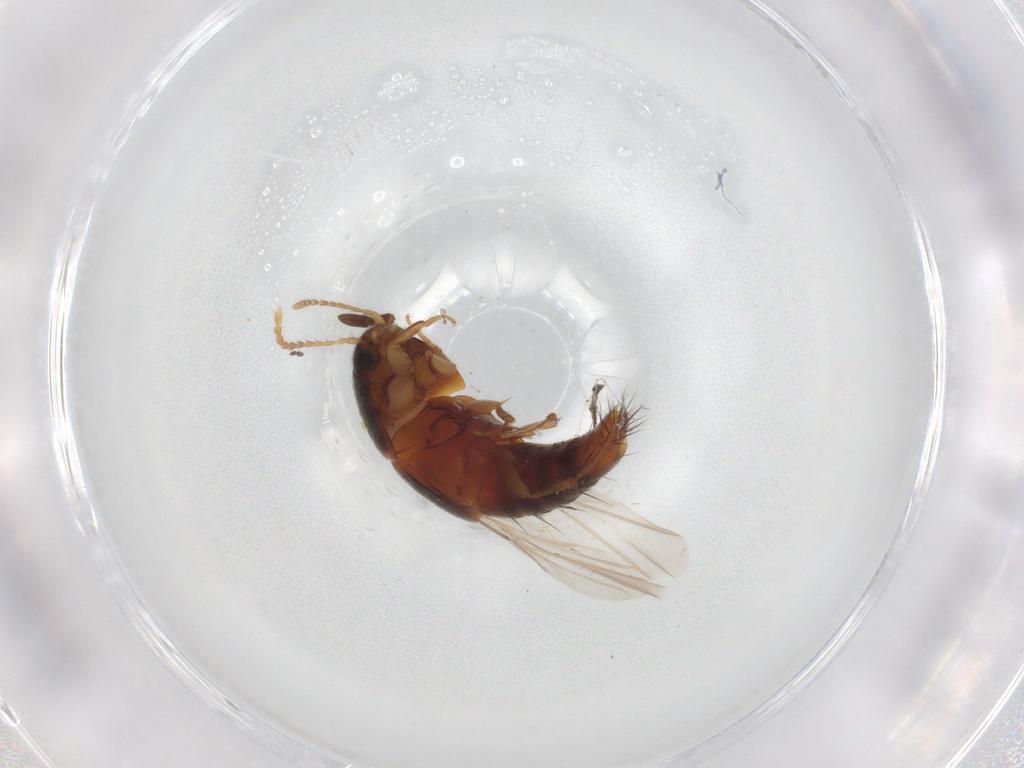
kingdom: Animalia
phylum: Arthropoda
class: Insecta
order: Coleoptera
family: Staphylinidae
